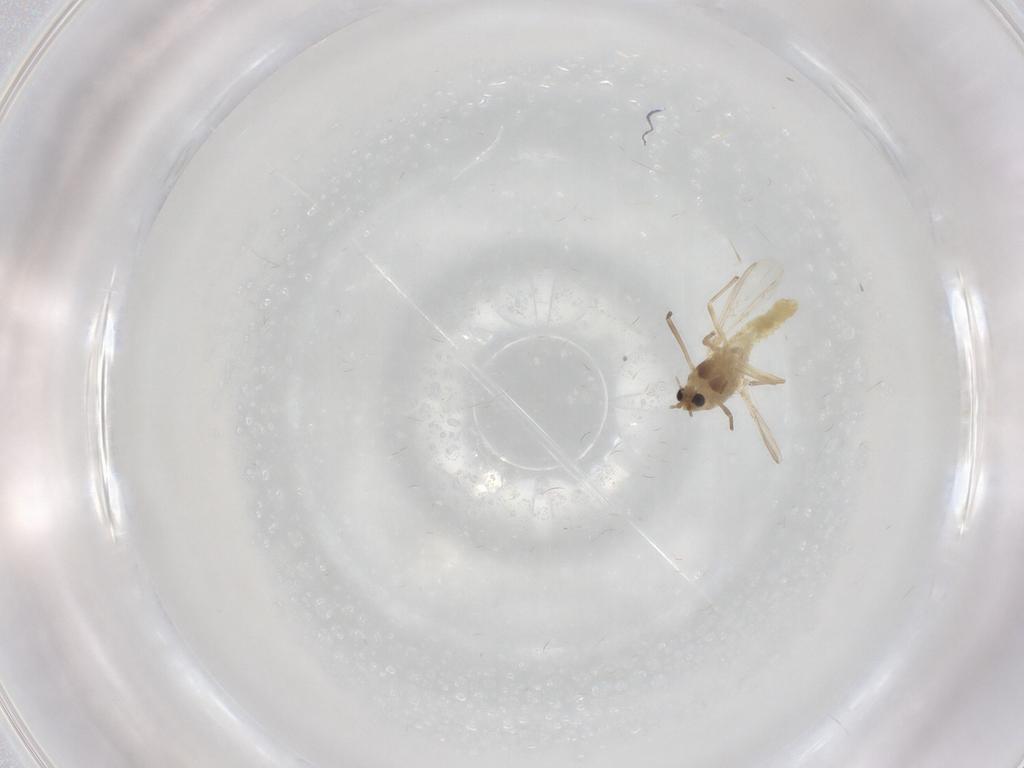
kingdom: Animalia
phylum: Arthropoda
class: Insecta
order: Diptera
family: Chironomidae
